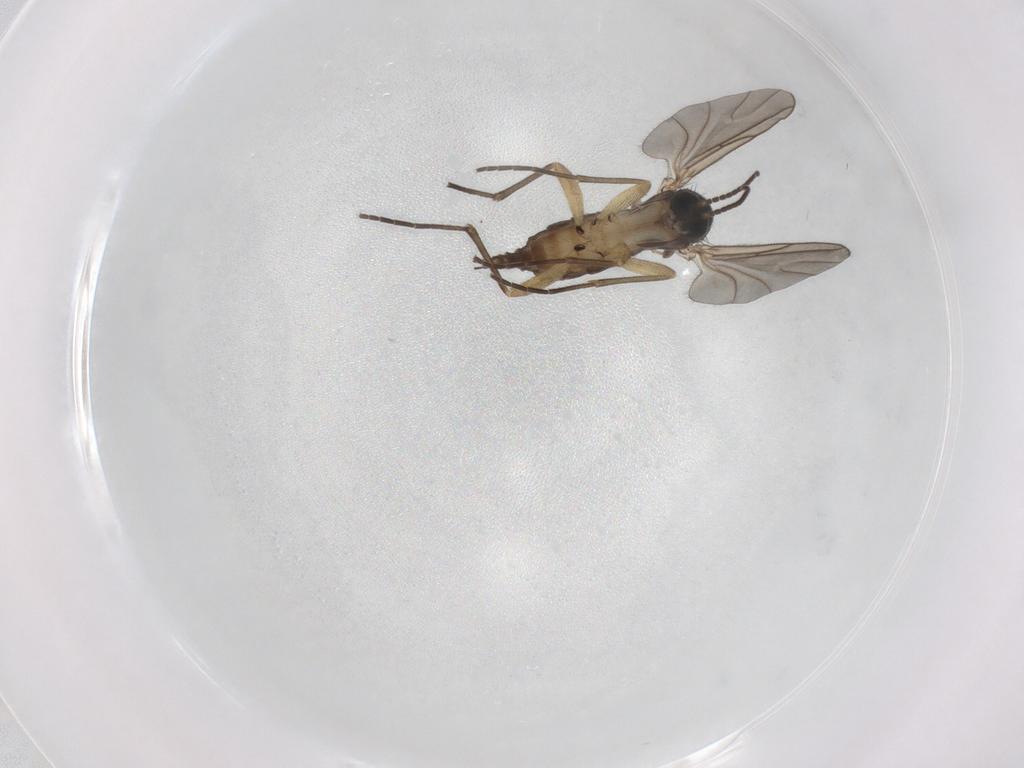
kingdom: Animalia
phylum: Arthropoda
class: Insecta
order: Diptera
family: Sciaridae
